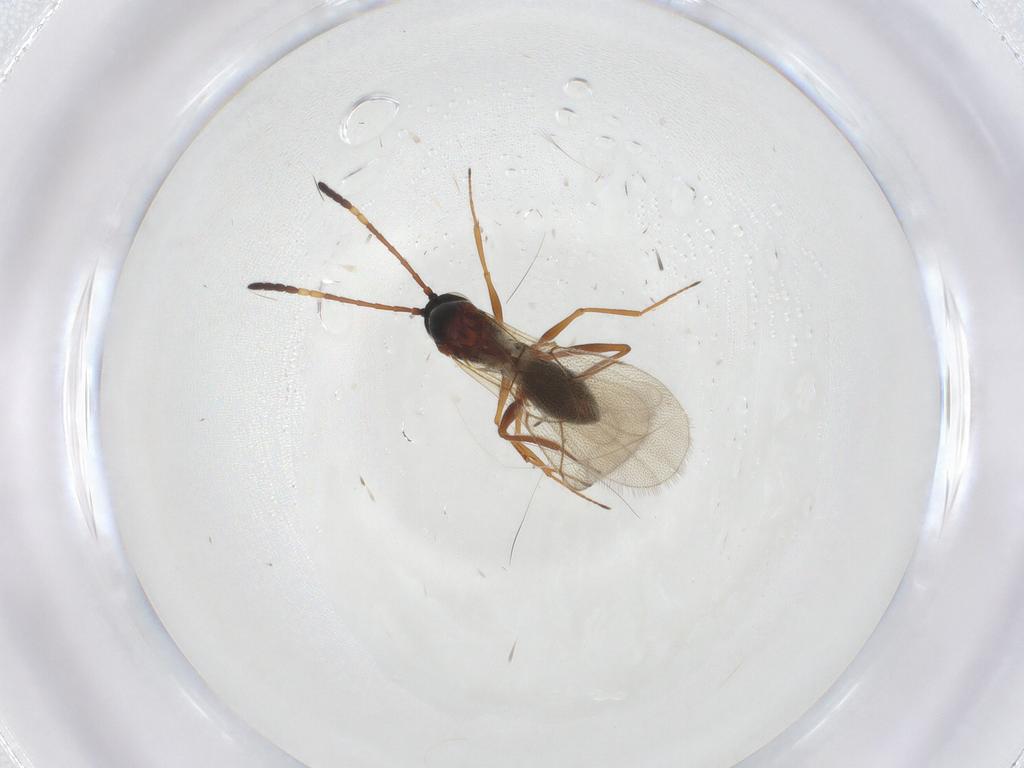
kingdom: Animalia
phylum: Arthropoda
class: Insecta
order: Hymenoptera
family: Figitidae
